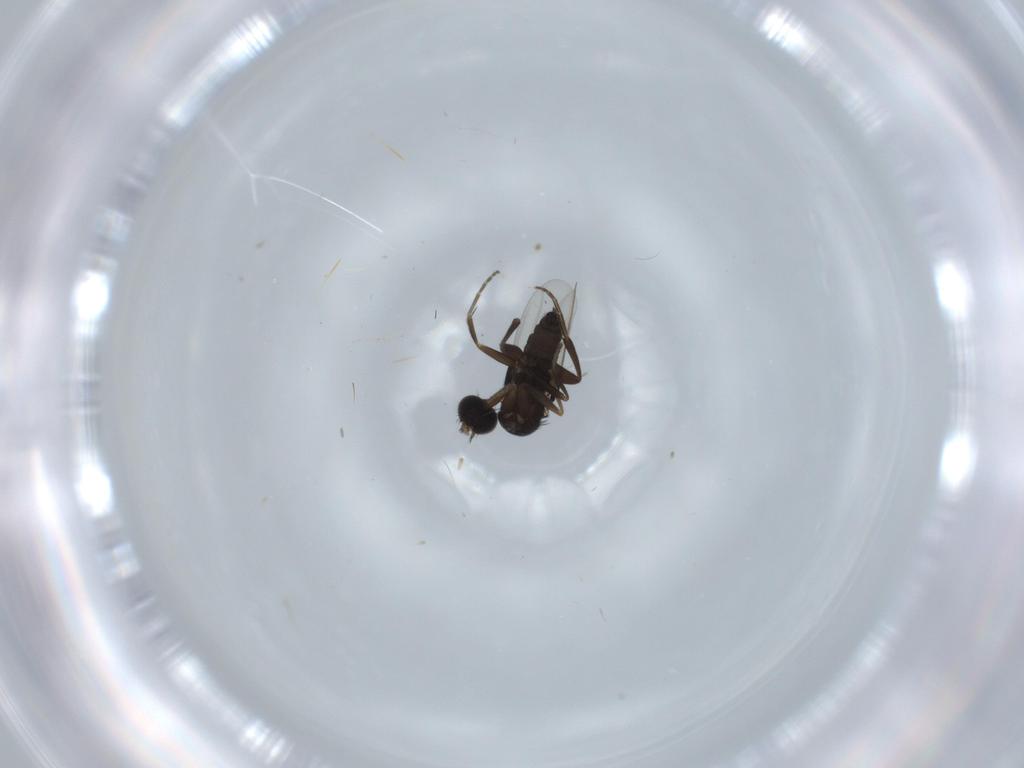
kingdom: Animalia
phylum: Arthropoda
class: Insecta
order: Diptera
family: Phoridae
